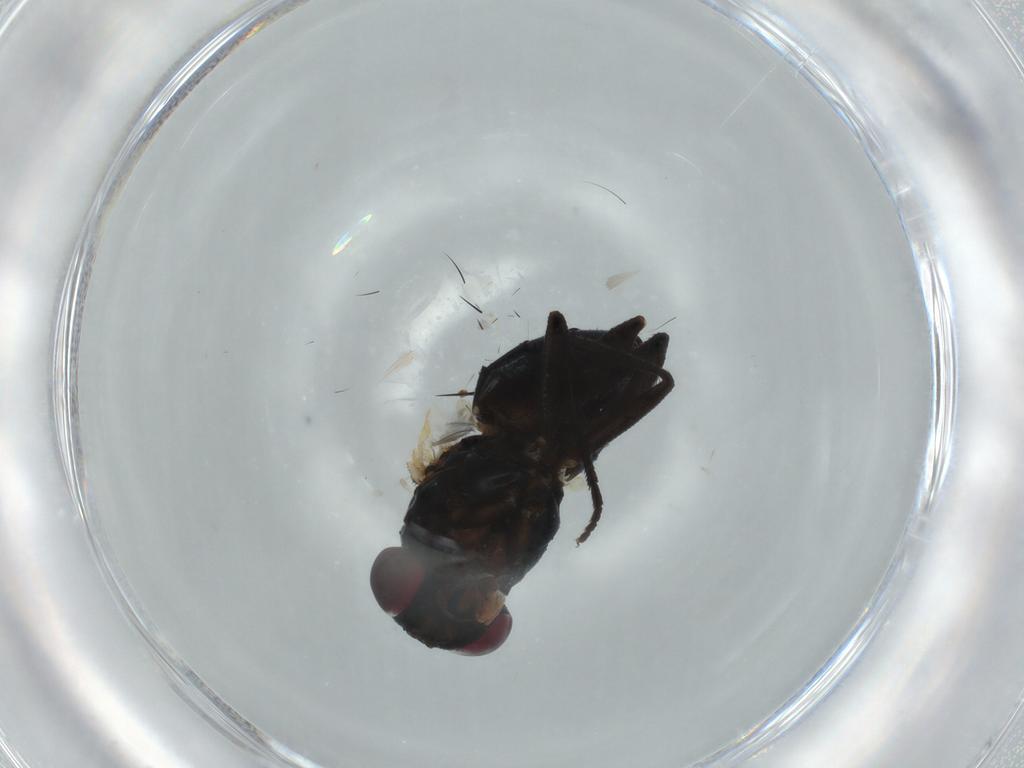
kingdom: Animalia
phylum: Arthropoda
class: Insecta
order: Diptera
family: Fannia
